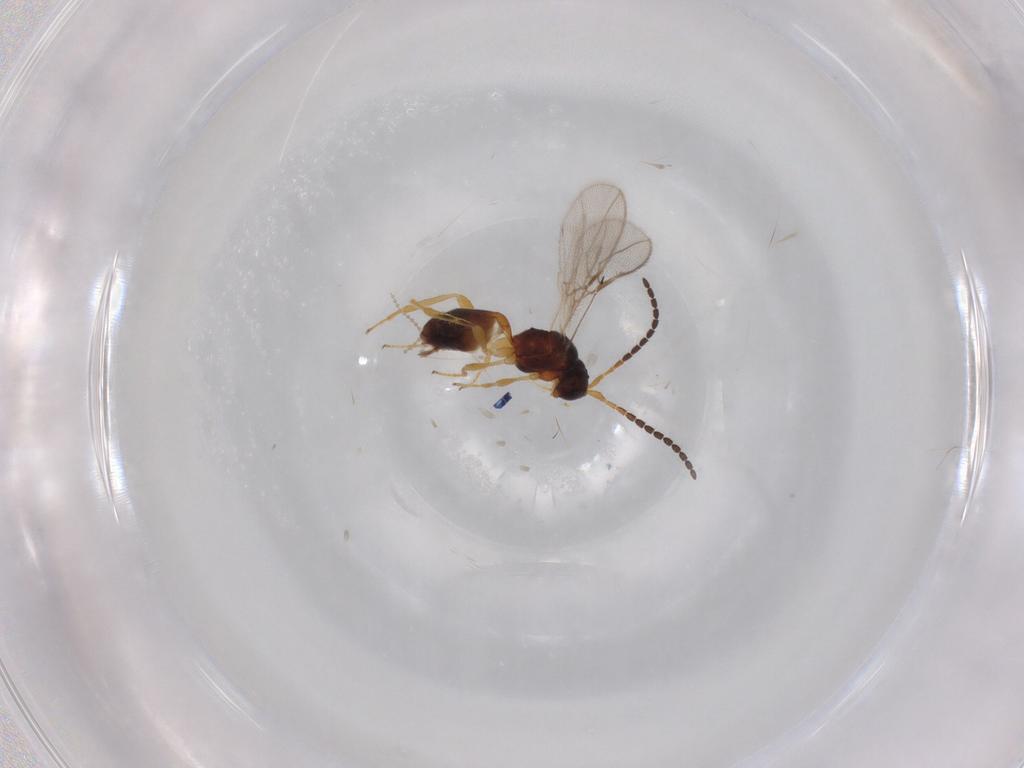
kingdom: Animalia
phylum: Arthropoda
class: Insecta
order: Hymenoptera
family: Braconidae
